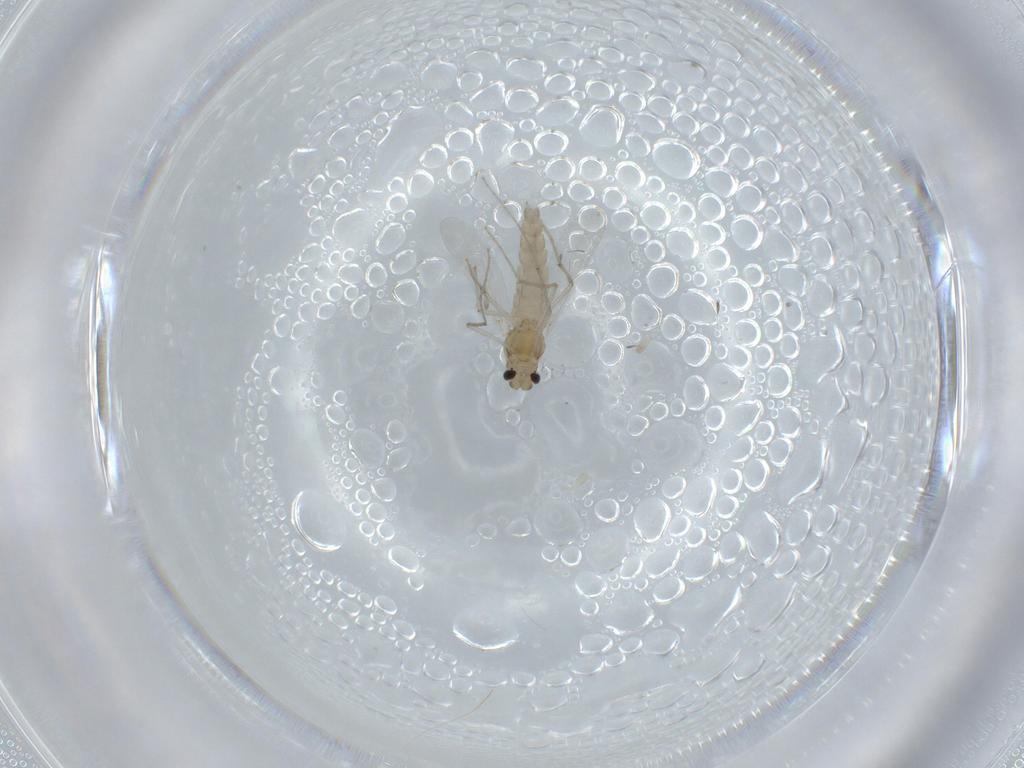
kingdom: Animalia
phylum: Arthropoda
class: Insecta
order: Diptera
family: Chironomidae
